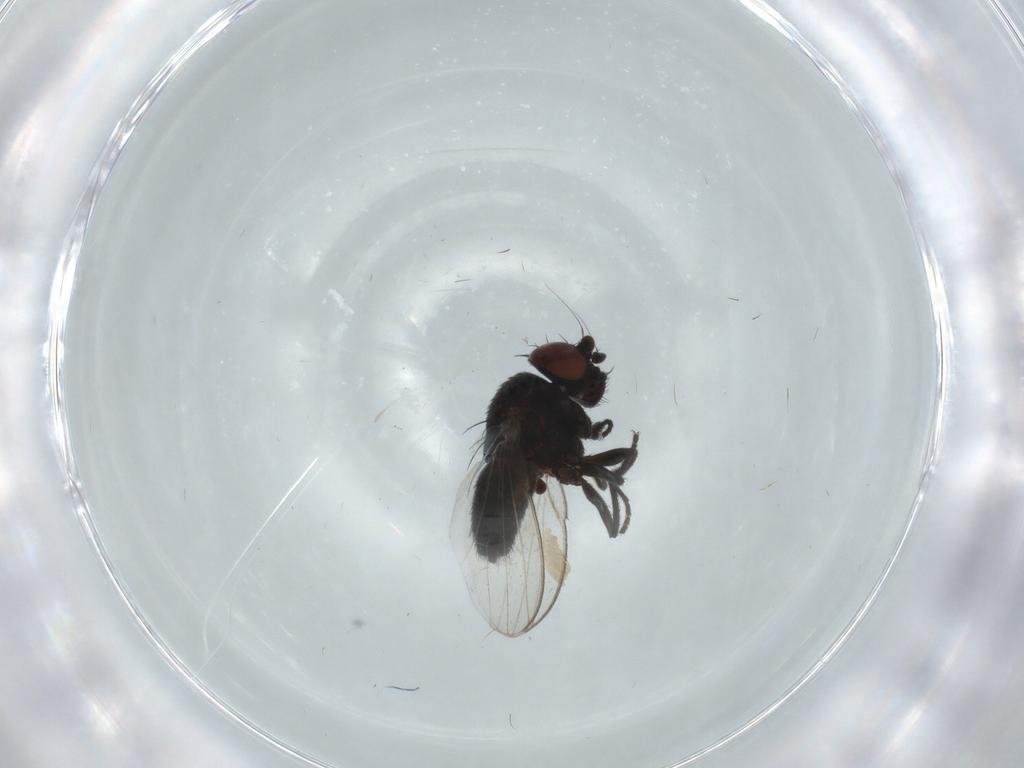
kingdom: Animalia
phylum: Arthropoda
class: Insecta
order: Diptera
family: Milichiidae
